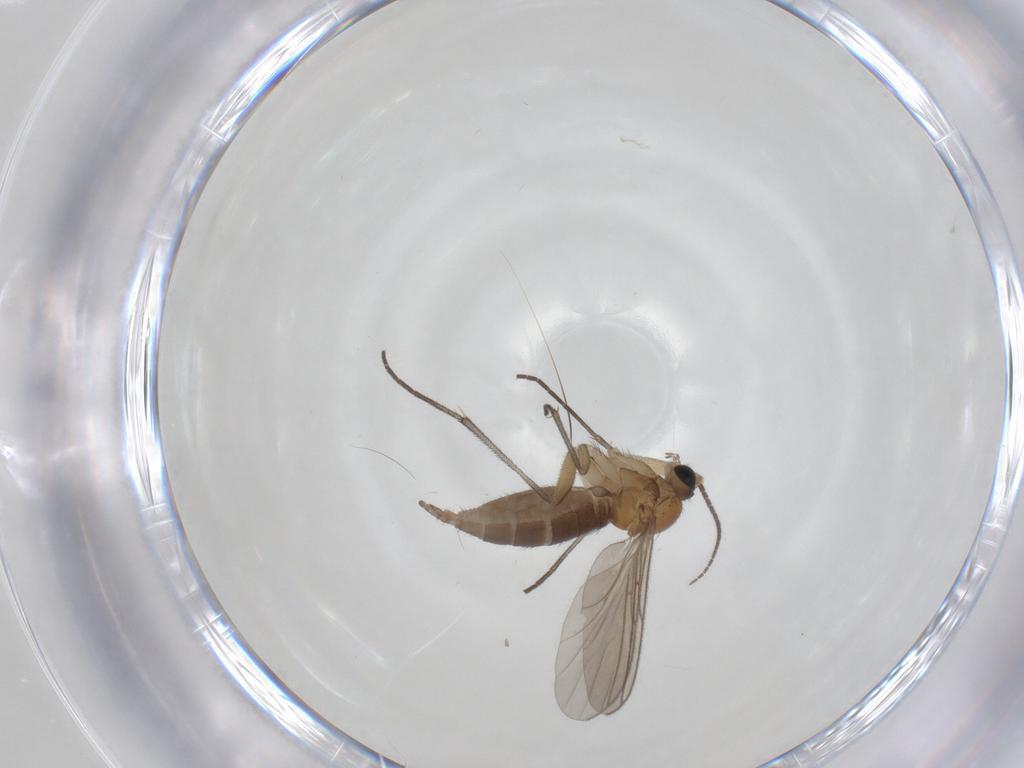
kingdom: Animalia
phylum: Arthropoda
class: Insecta
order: Diptera
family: Sciaridae
